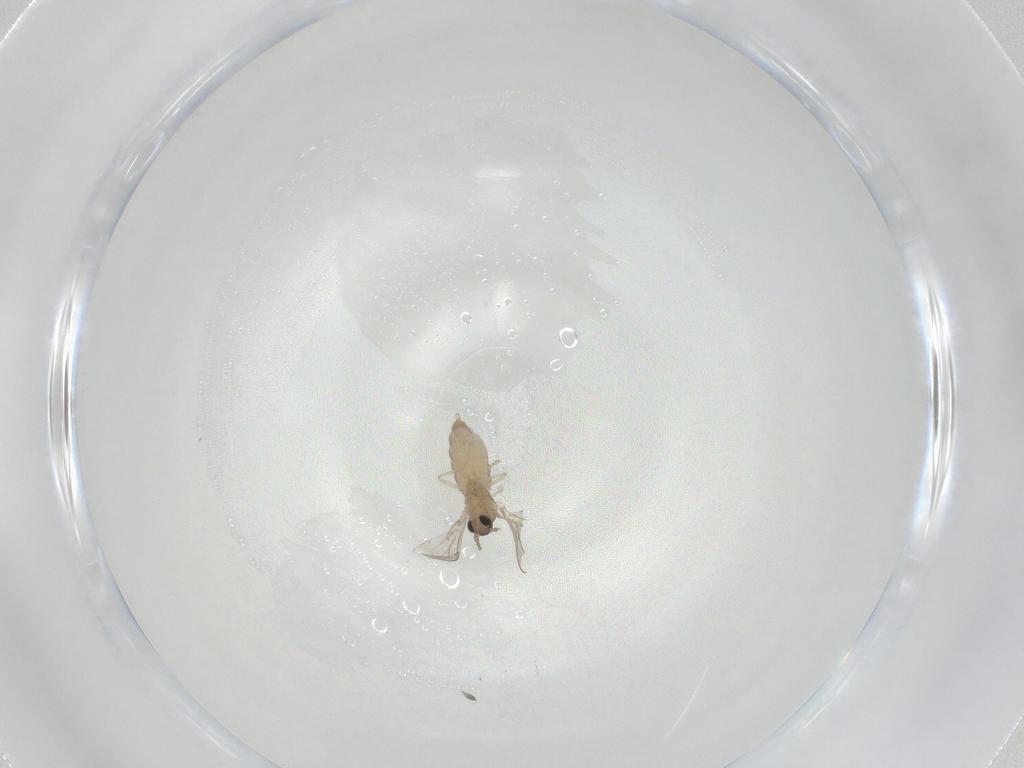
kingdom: Animalia
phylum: Arthropoda
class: Insecta
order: Diptera
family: Cecidomyiidae
